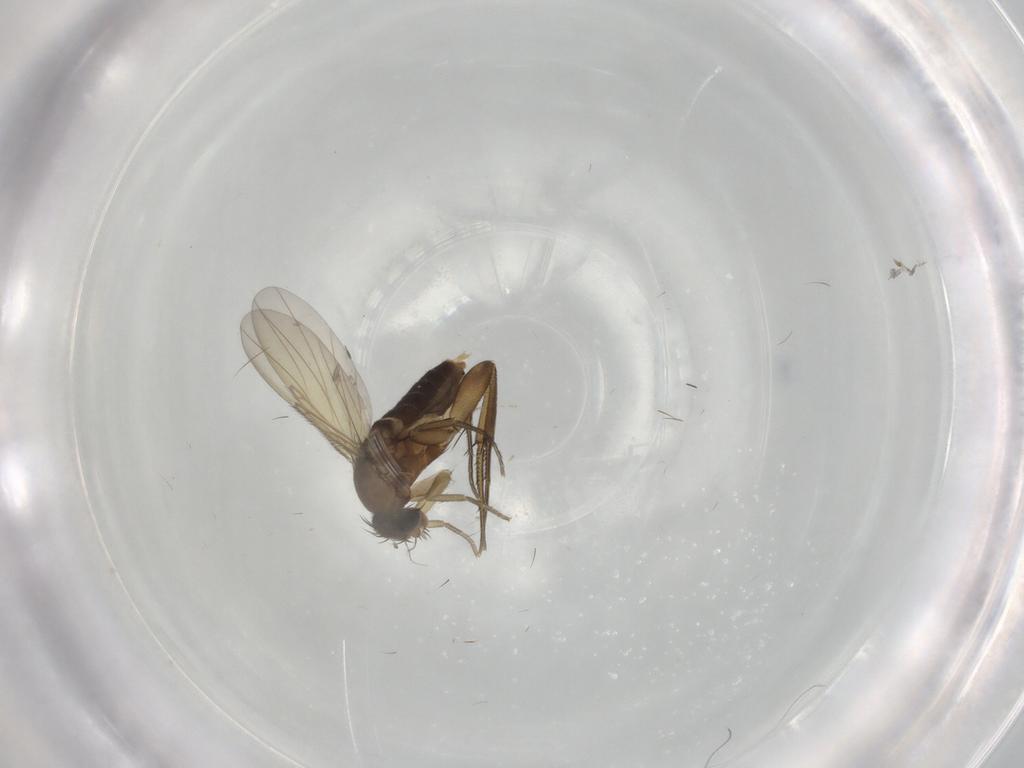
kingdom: Animalia
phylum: Arthropoda
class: Insecta
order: Diptera
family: Phoridae
